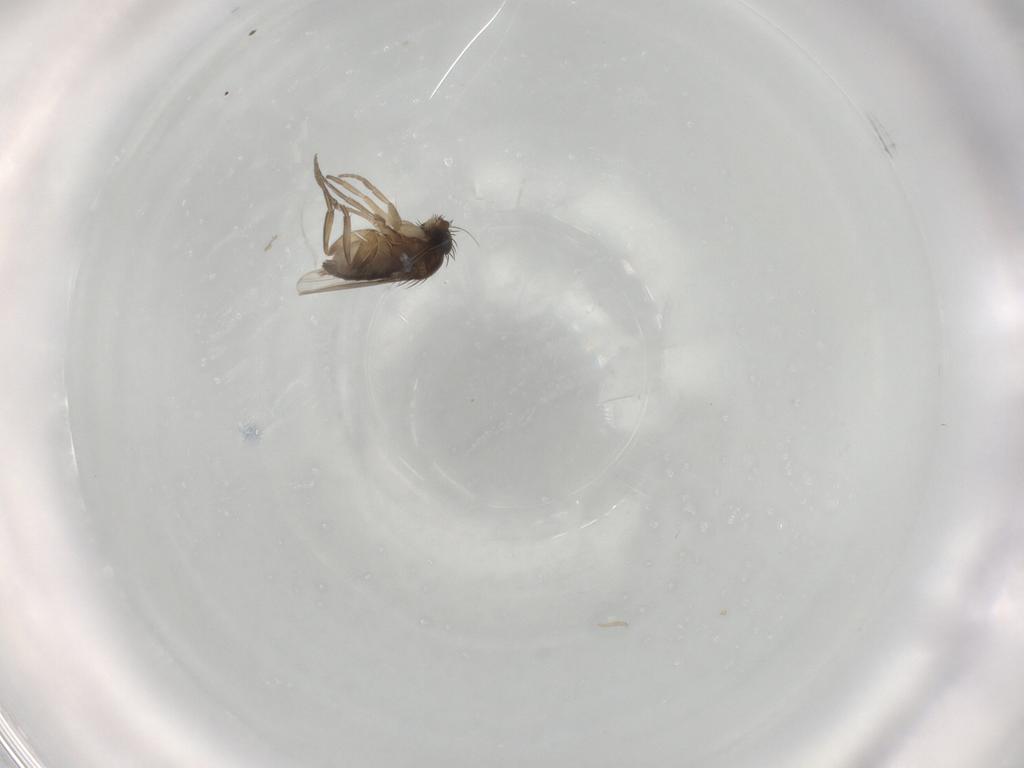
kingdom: Animalia
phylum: Arthropoda
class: Insecta
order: Diptera
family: Phoridae
